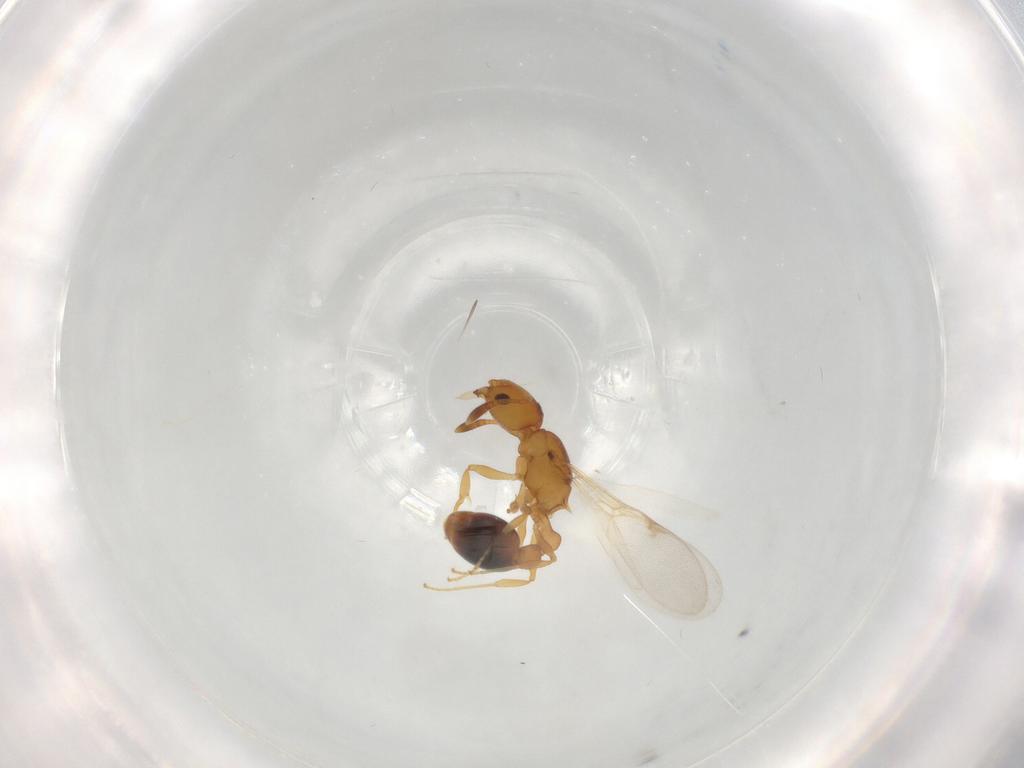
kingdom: Animalia
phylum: Arthropoda
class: Insecta
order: Hymenoptera
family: Formicidae
